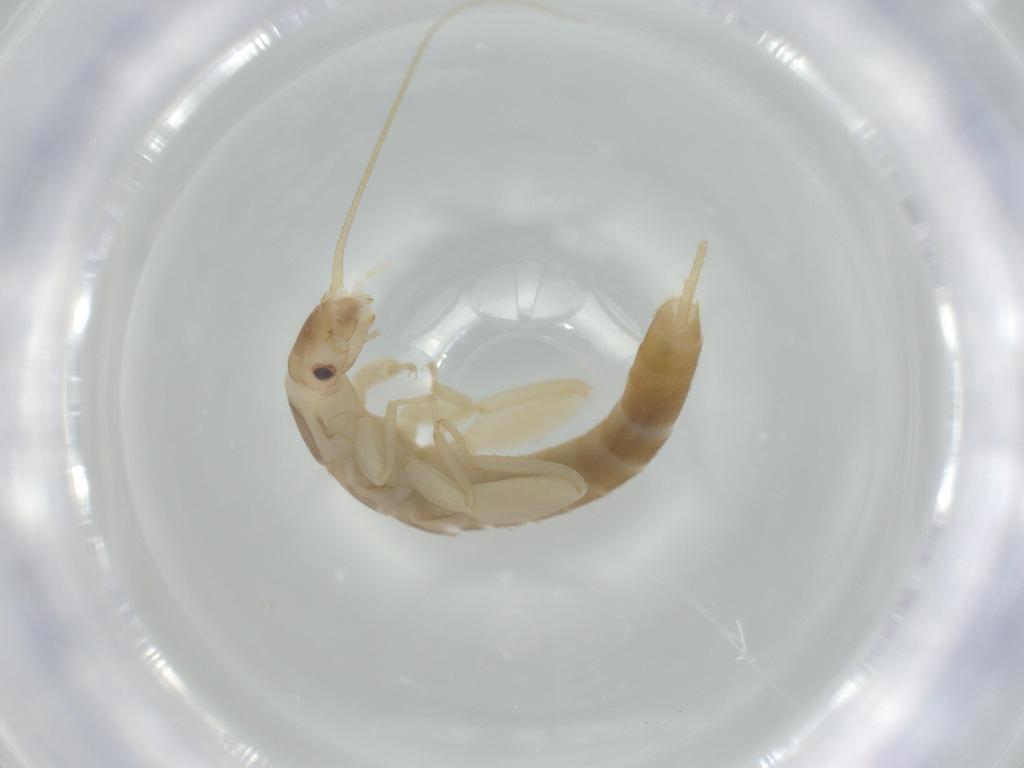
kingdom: Animalia
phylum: Arthropoda
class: Insecta
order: Plecoptera
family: Leuctridae
